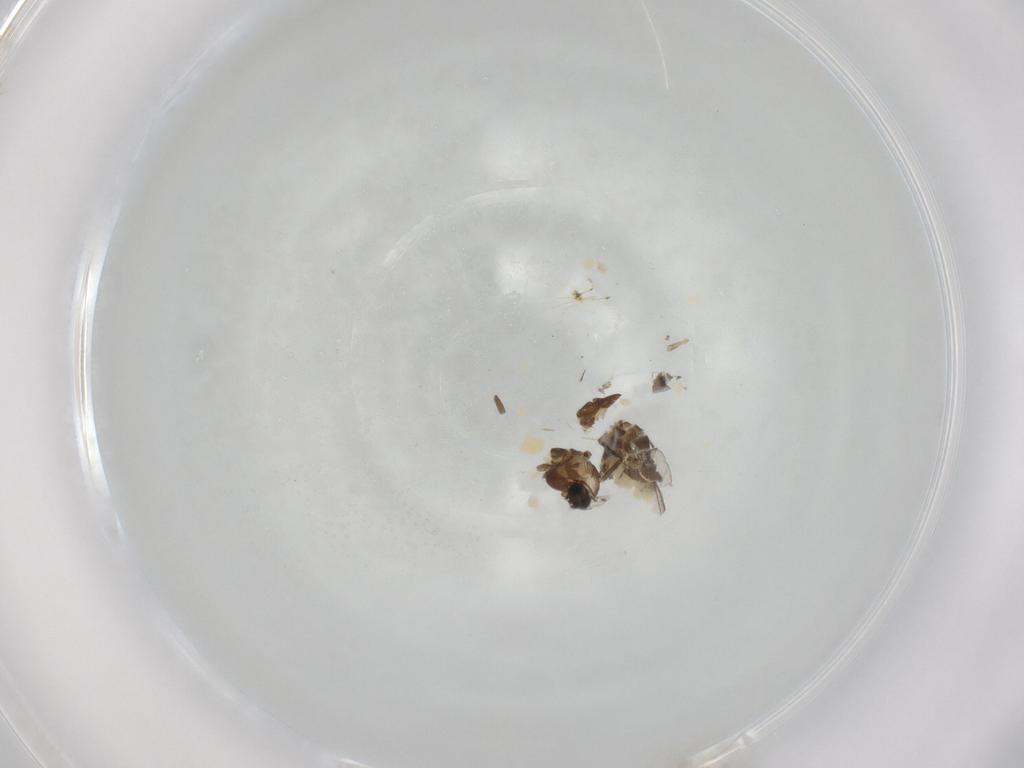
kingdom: Animalia
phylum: Arthropoda
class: Insecta
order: Diptera
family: Chironomidae
